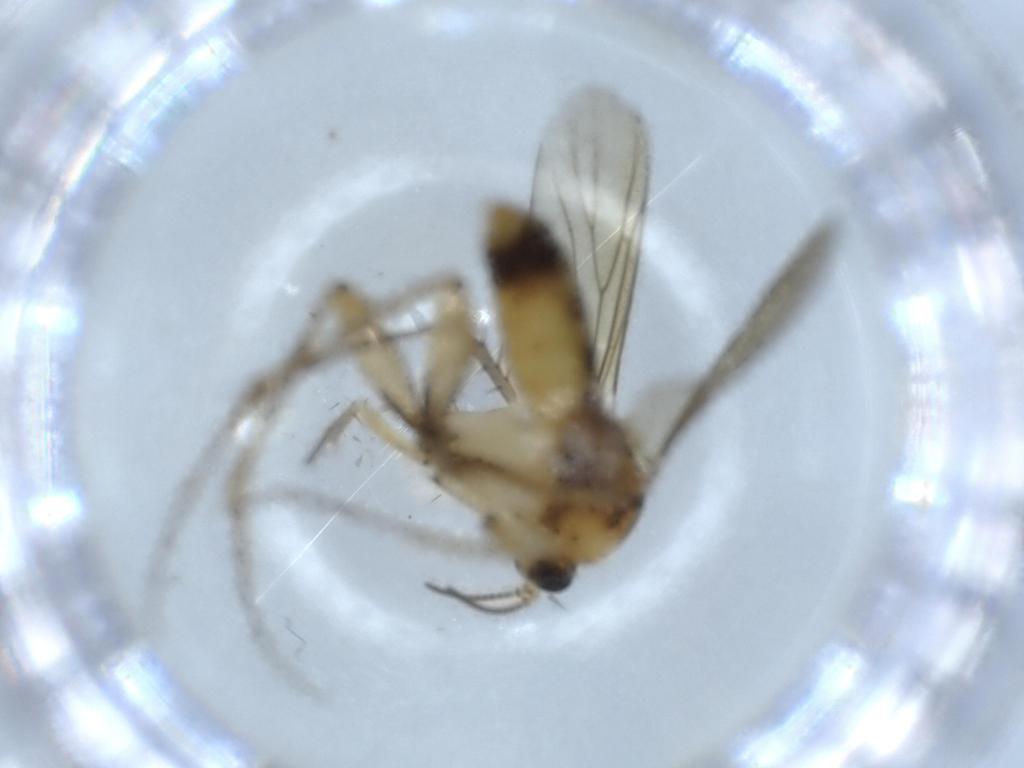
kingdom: Animalia
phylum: Arthropoda
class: Insecta
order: Diptera
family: Mycetophilidae
